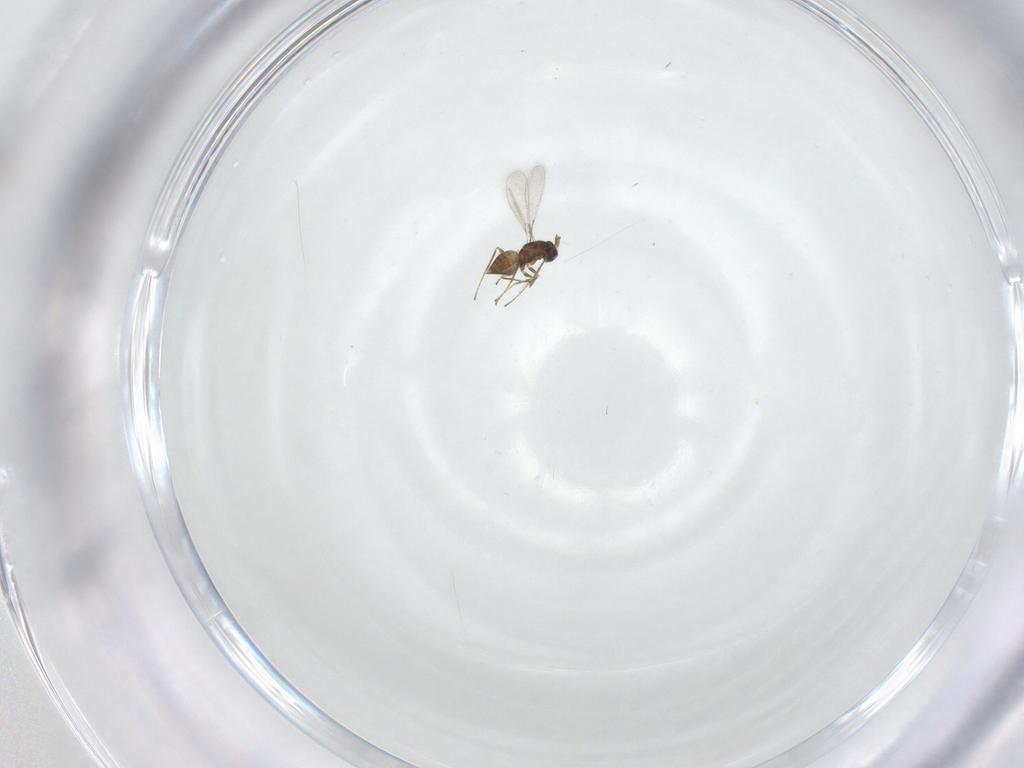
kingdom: Animalia
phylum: Arthropoda
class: Insecta
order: Hymenoptera
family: Mymaridae
